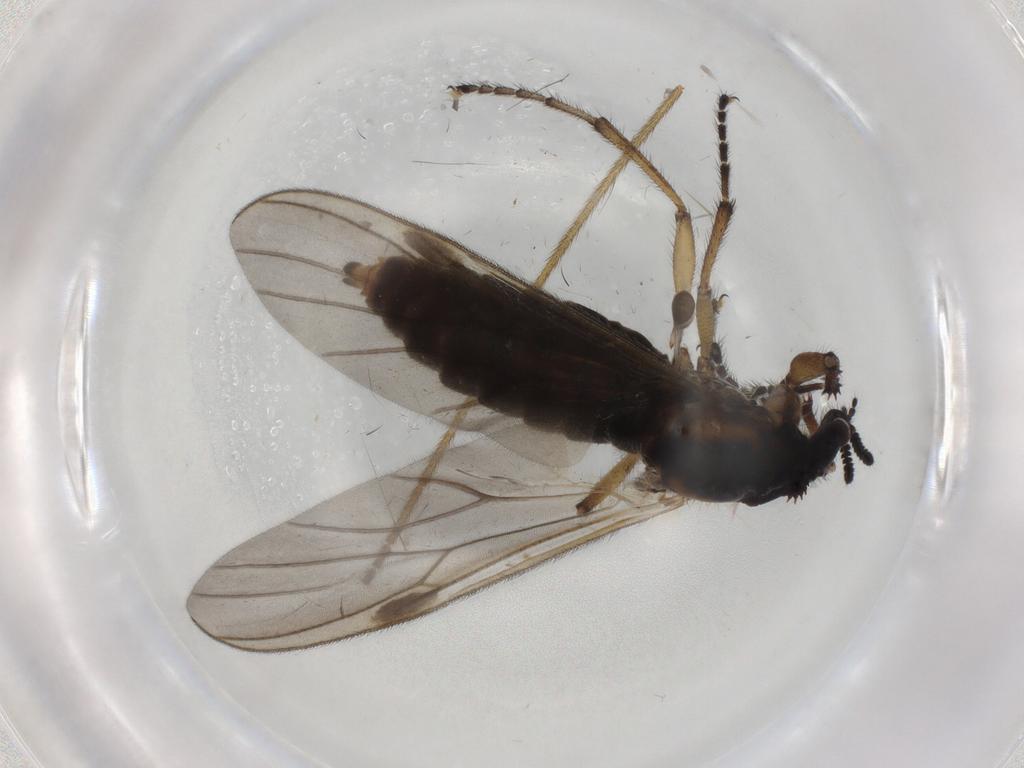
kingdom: Animalia
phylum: Arthropoda
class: Insecta
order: Diptera
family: Bibionidae
